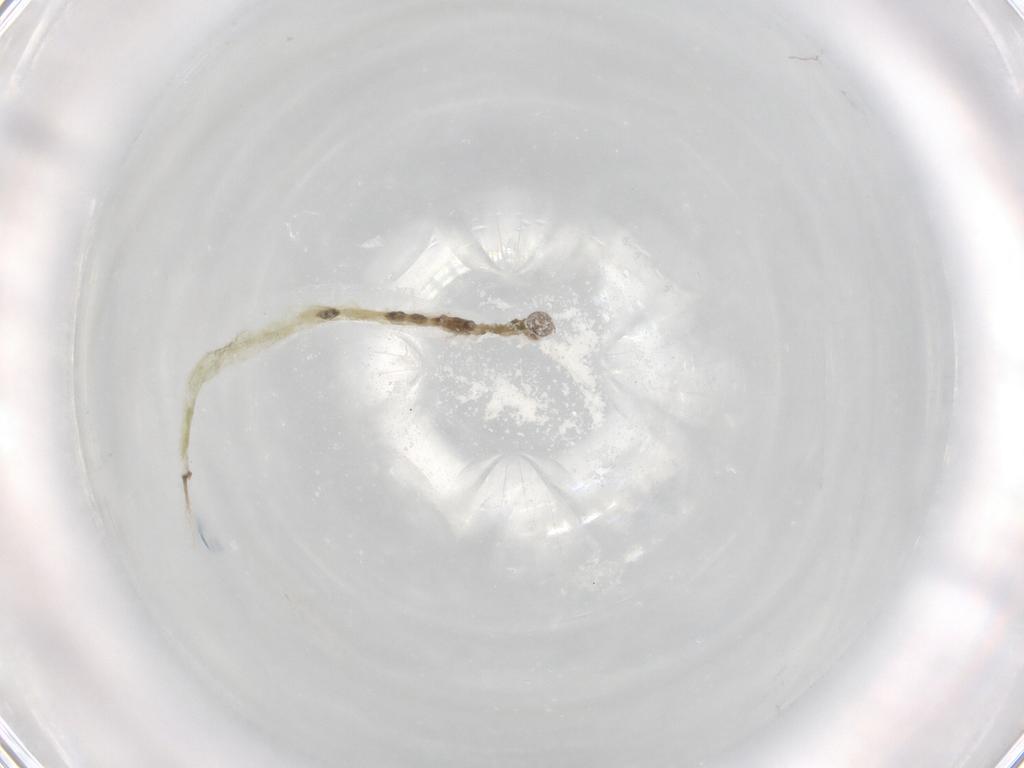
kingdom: Animalia
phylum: Arthropoda
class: Insecta
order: Diptera
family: Chironomidae
